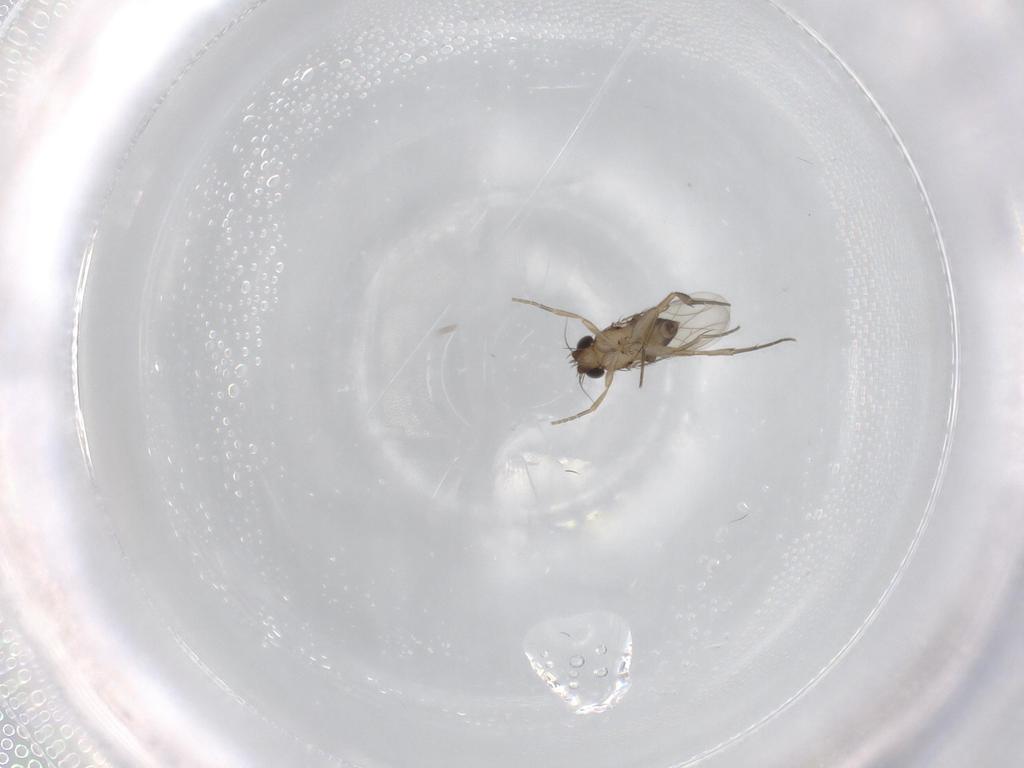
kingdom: Animalia
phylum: Arthropoda
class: Insecta
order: Diptera
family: Phoridae
